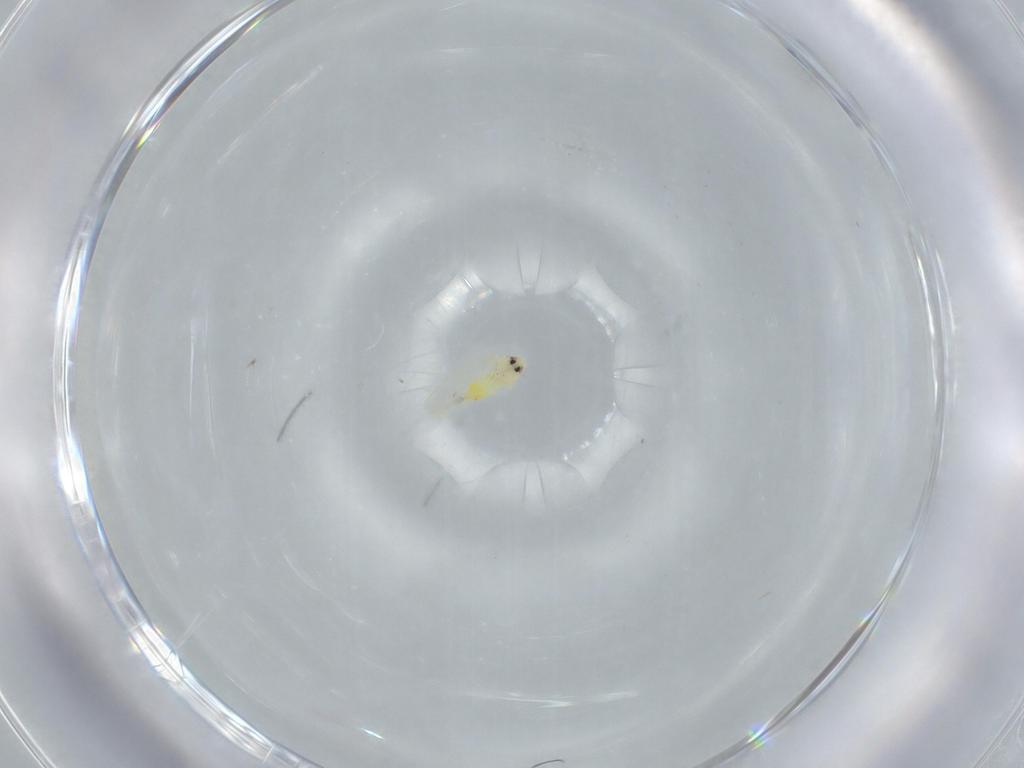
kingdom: Animalia
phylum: Arthropoda
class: Insecta
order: Hemiptera
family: Aleyrodidae
